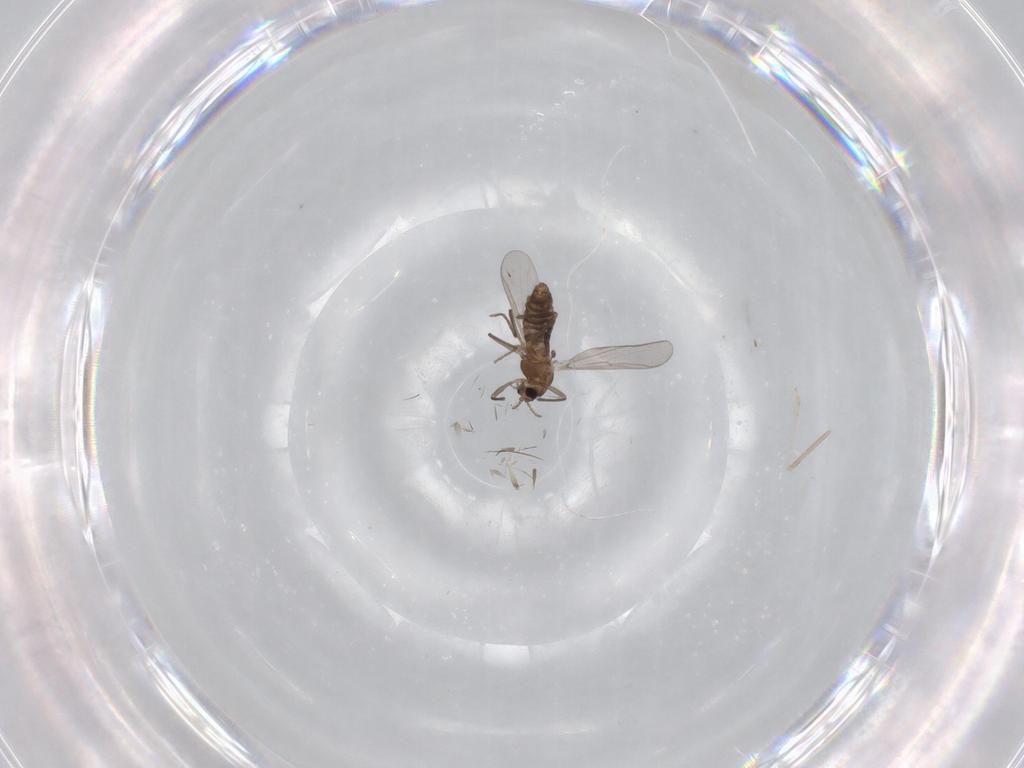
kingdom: Animalia
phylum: Arthropoda
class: Insecta
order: Diptera
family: Chironomidae
